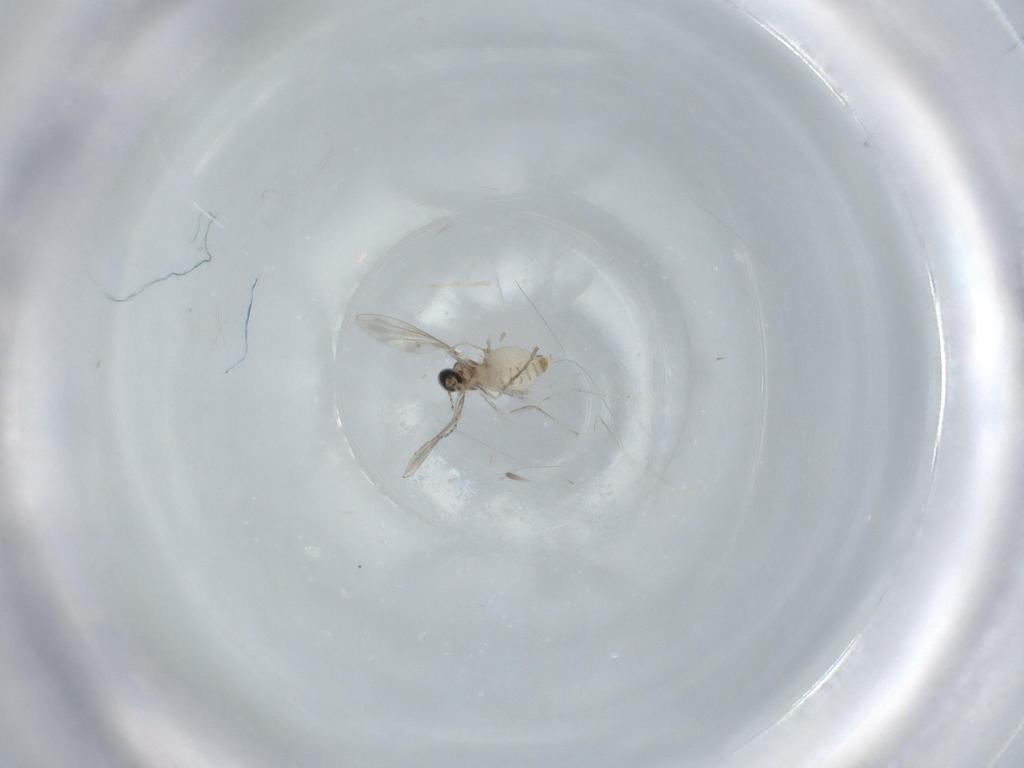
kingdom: Animalia
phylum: Arthropoda
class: Insecta
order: Diptera
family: Cecidomyiidae
